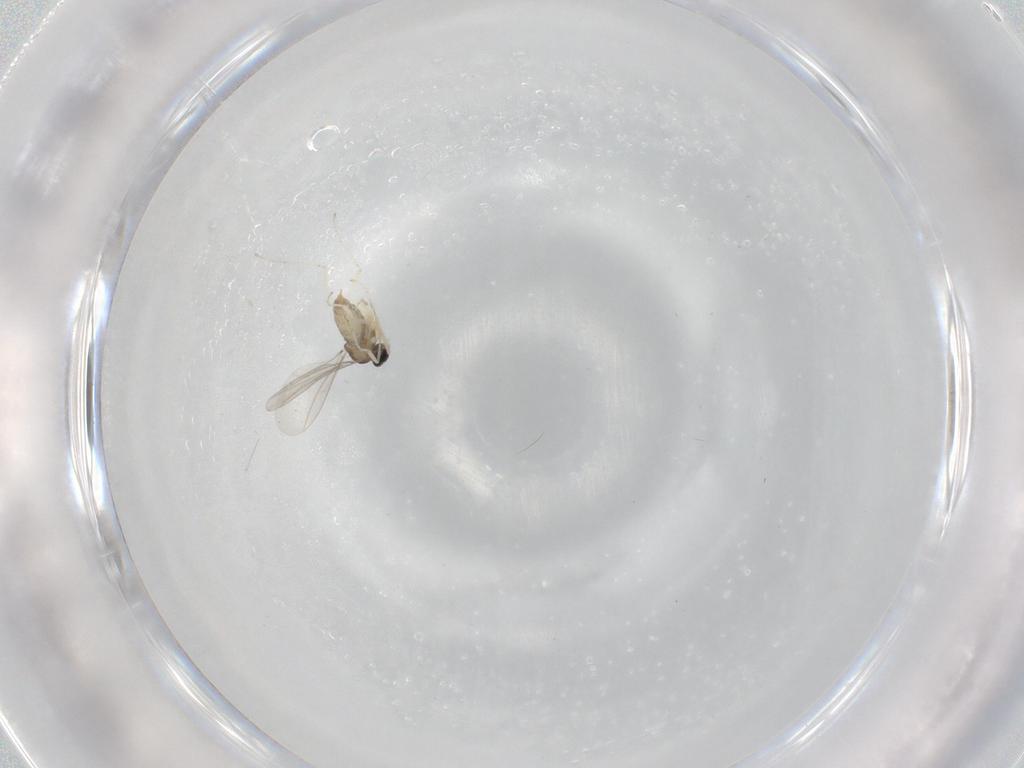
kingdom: Animalia
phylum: Arthropoda
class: Insecta
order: Diptera
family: Cecidomyiidae
